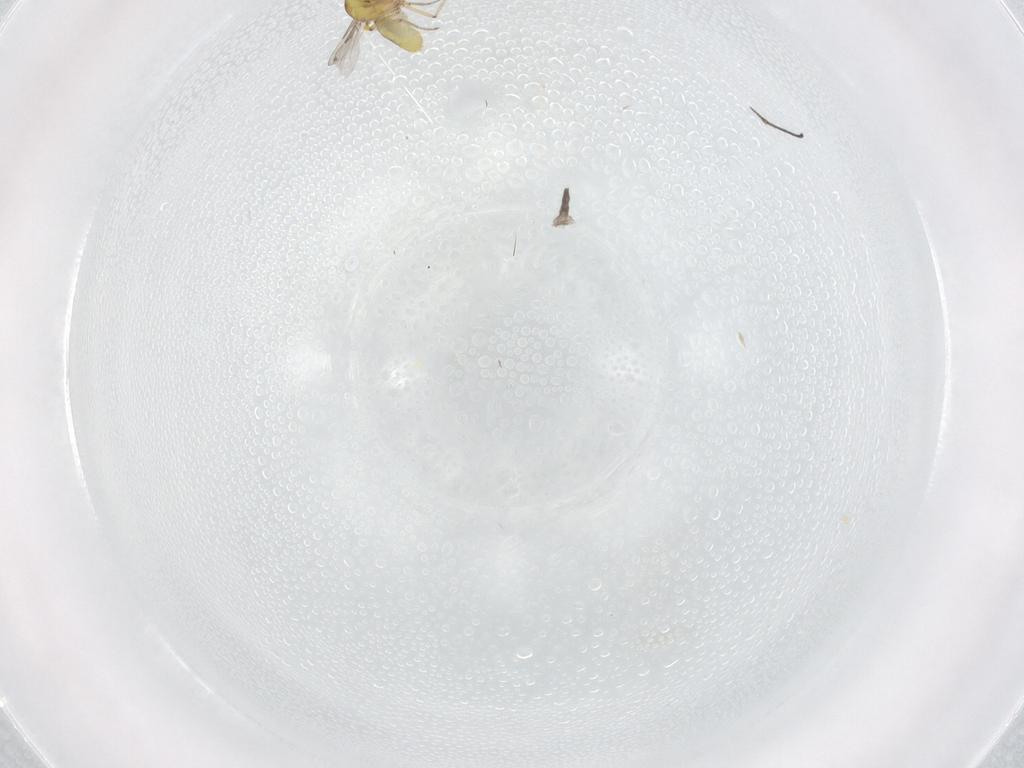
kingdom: Animalia
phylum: Arthropoda
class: Insecta
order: Diptera
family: Ceratopogonidae
